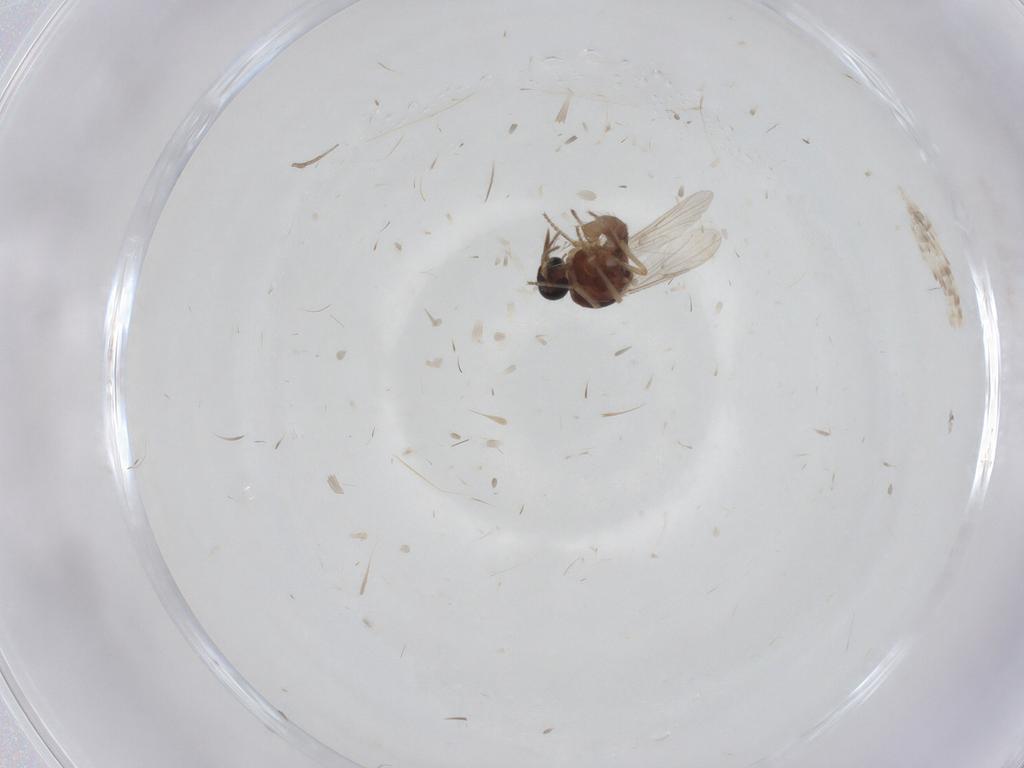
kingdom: Animalia
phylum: Arthropoda
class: Insecta
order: Diptera
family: Ceratopogonidae
